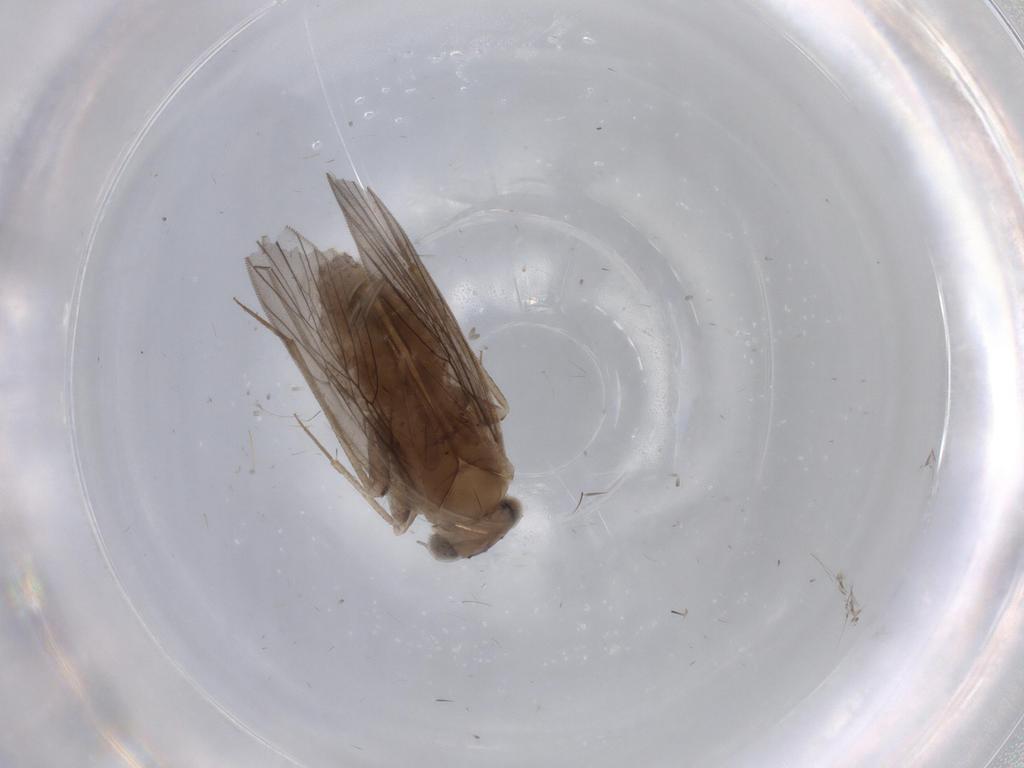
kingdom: Animalia
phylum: Arthropoda
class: Insecta
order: Psocodea
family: Lepidopsocidae
